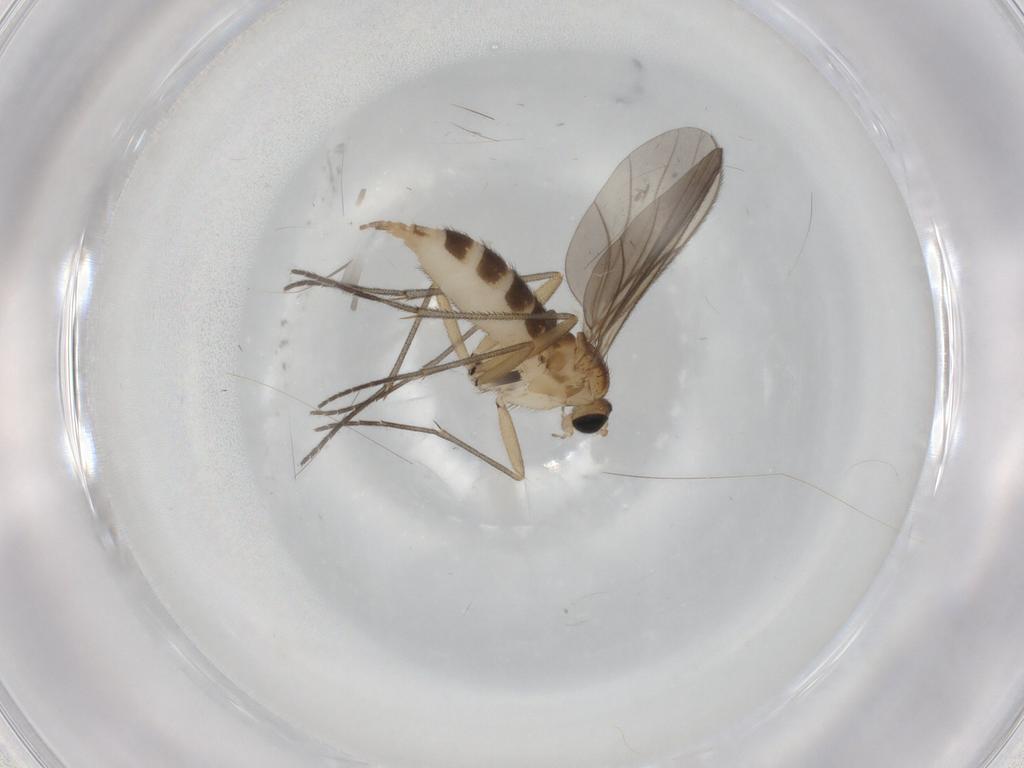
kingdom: Animalia
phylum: Arthropoda
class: Insecta
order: Diptera
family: Sciaridae
